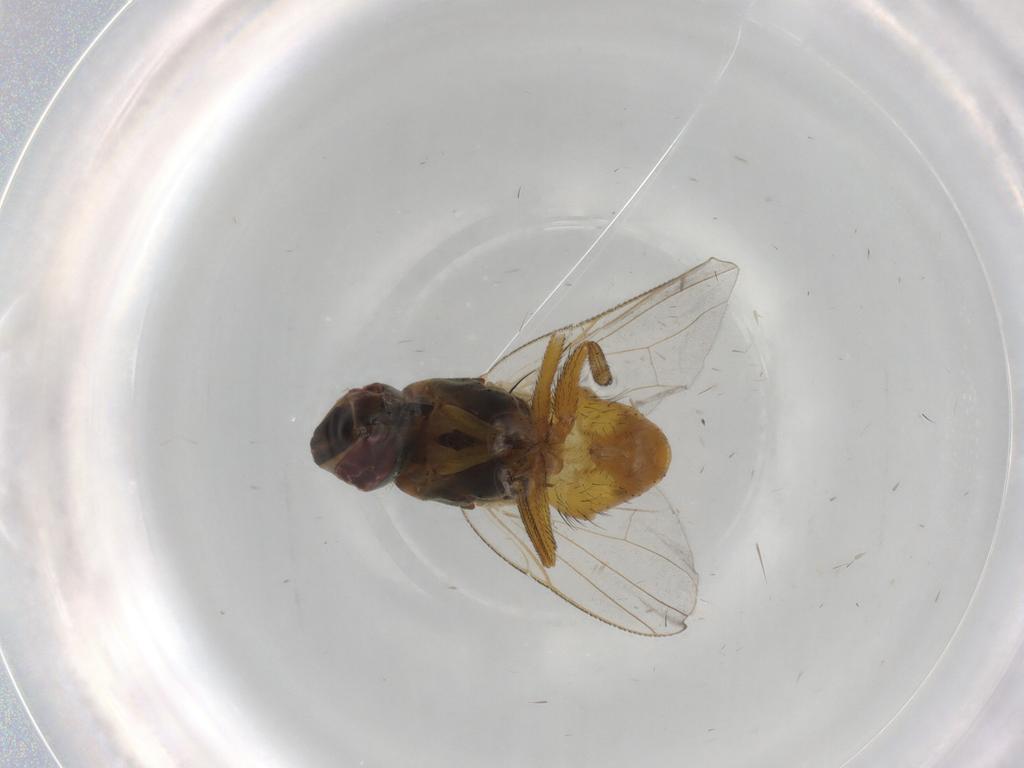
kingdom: Animalia
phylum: Arthropoda
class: Insecta
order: Diptera
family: Muscidae
